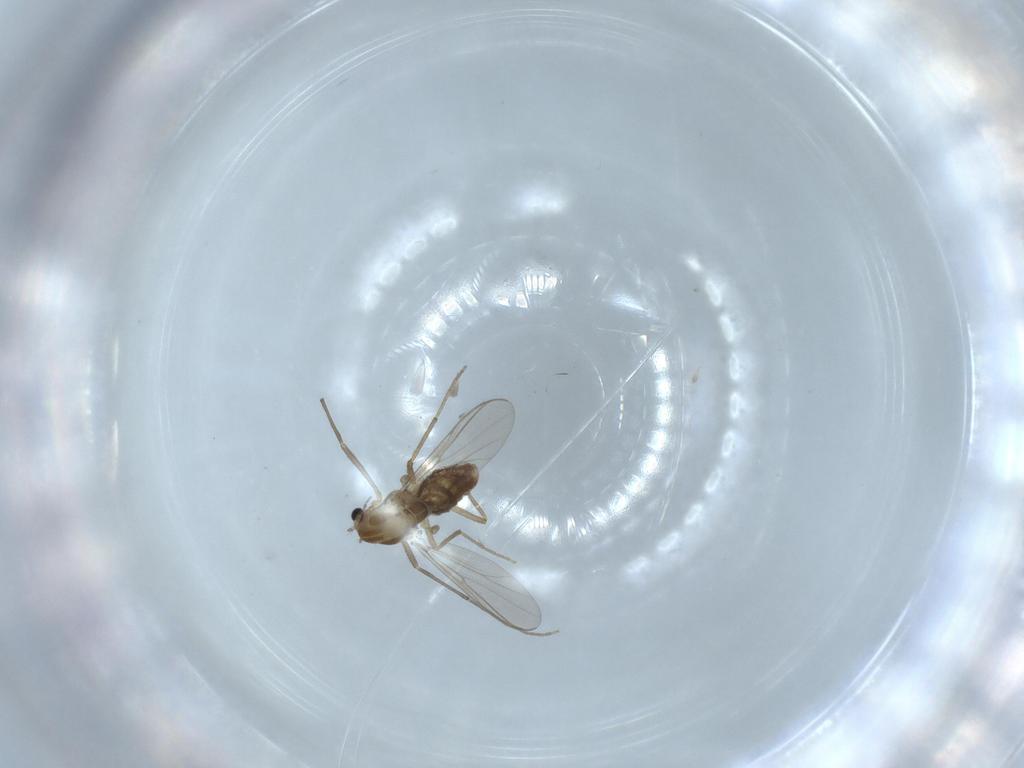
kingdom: Animalia
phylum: Arthropoda
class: Insecta
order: Diptera
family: Chironomidae
